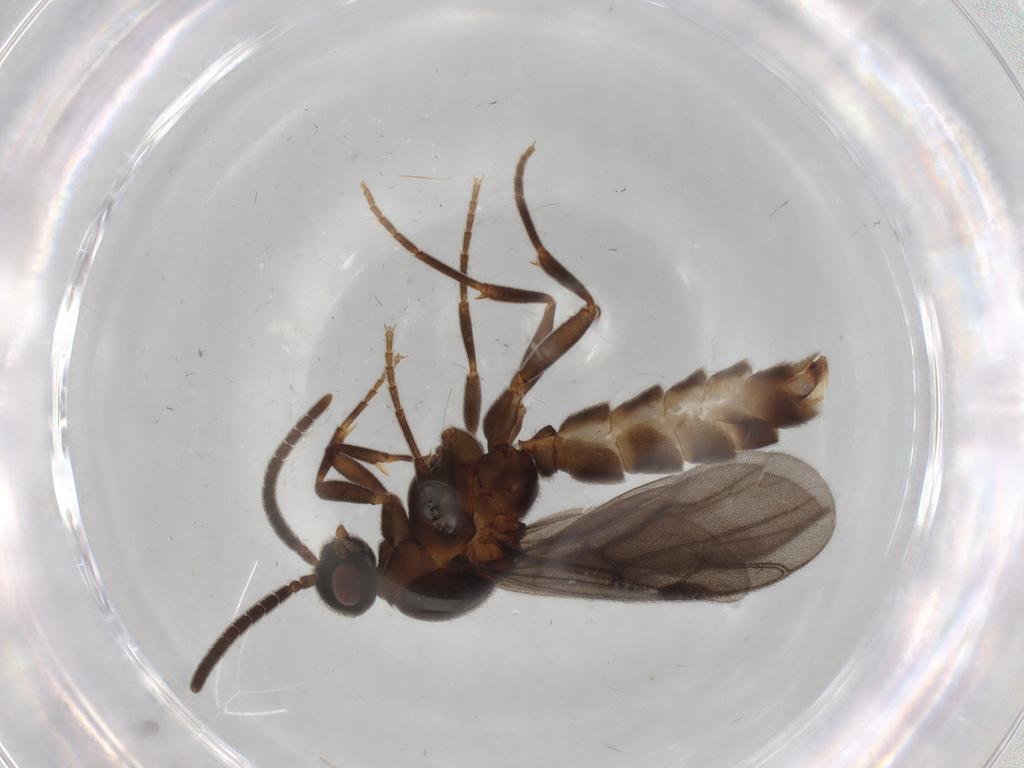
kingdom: Animalia
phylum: Arthropoda
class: Insecta
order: Hymenoptera
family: Formicidae
